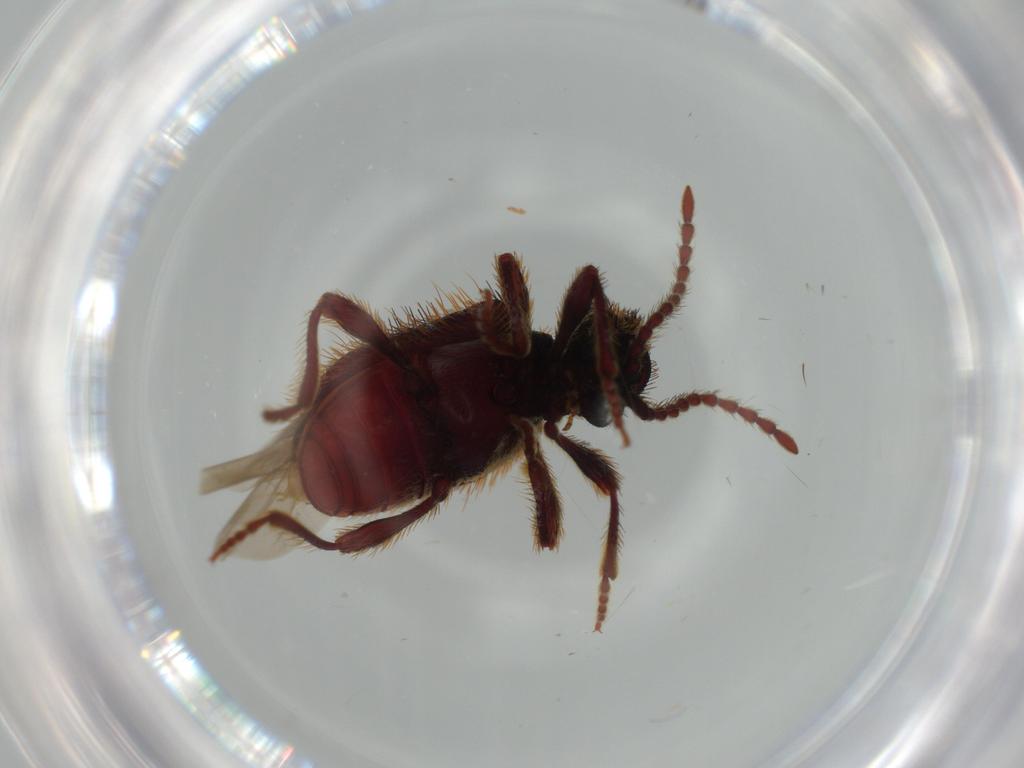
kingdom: Animalia
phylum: Arthropoda
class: Insecta
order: Coleoptera
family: Ptinidae
